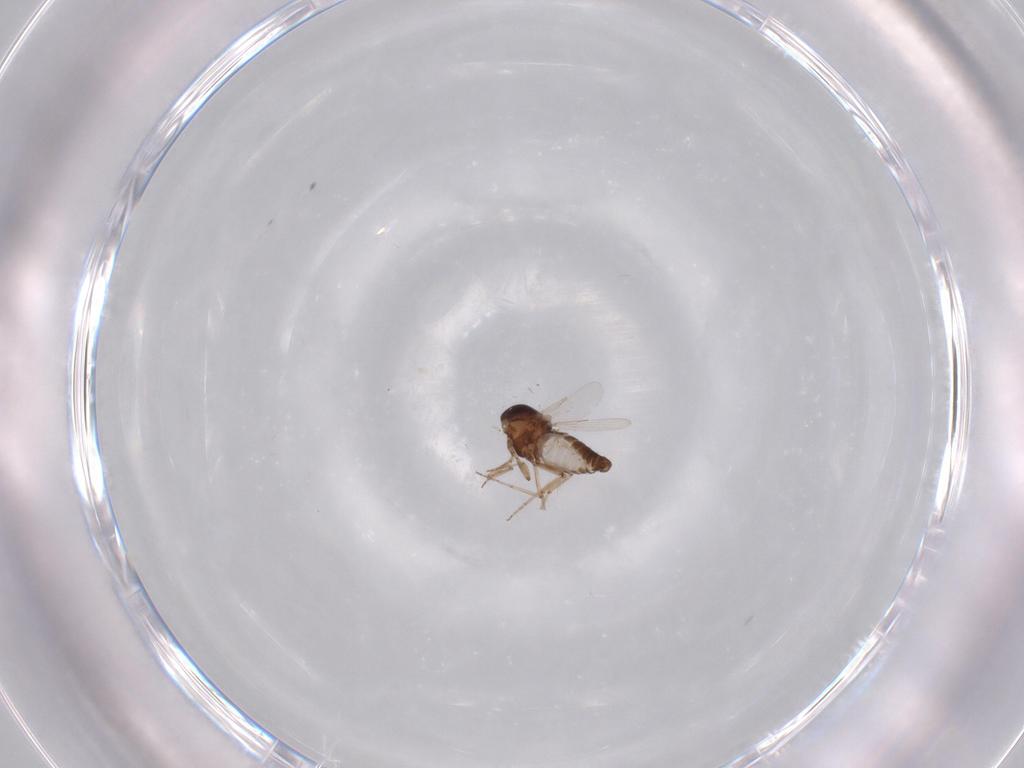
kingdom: Animalia
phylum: Arthropoda
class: Insecta
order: Diptera
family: Ceratopogonidae
